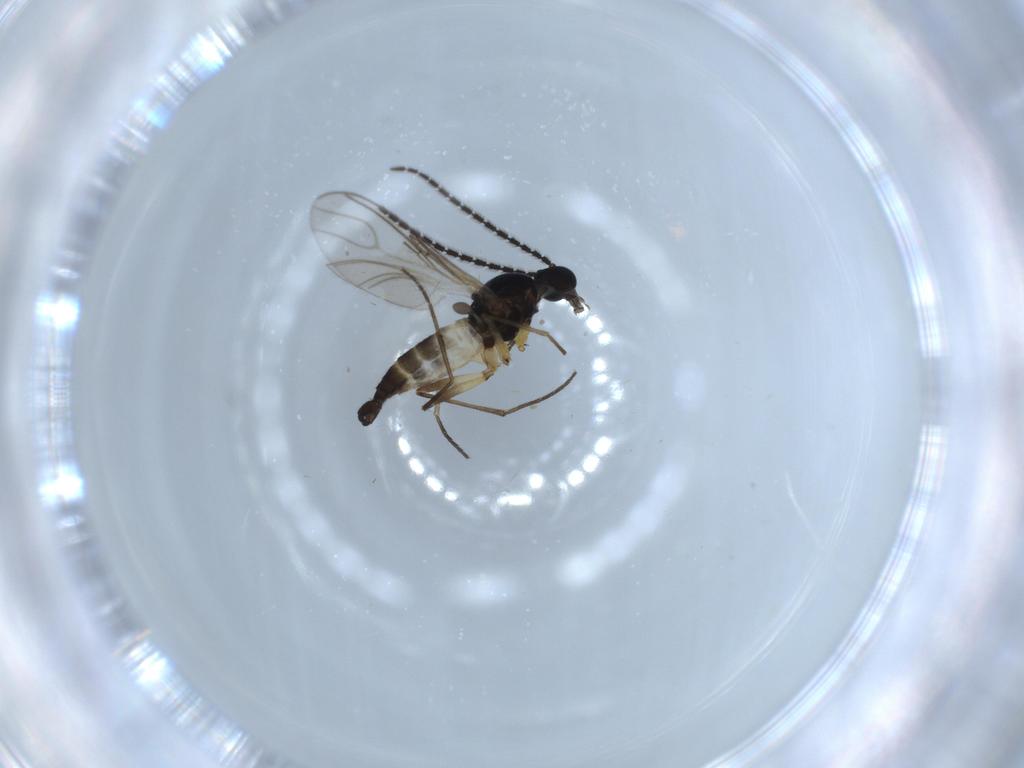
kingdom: Animalia
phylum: Arthropoda
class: Insecta
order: Diptera
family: Sciaridae
